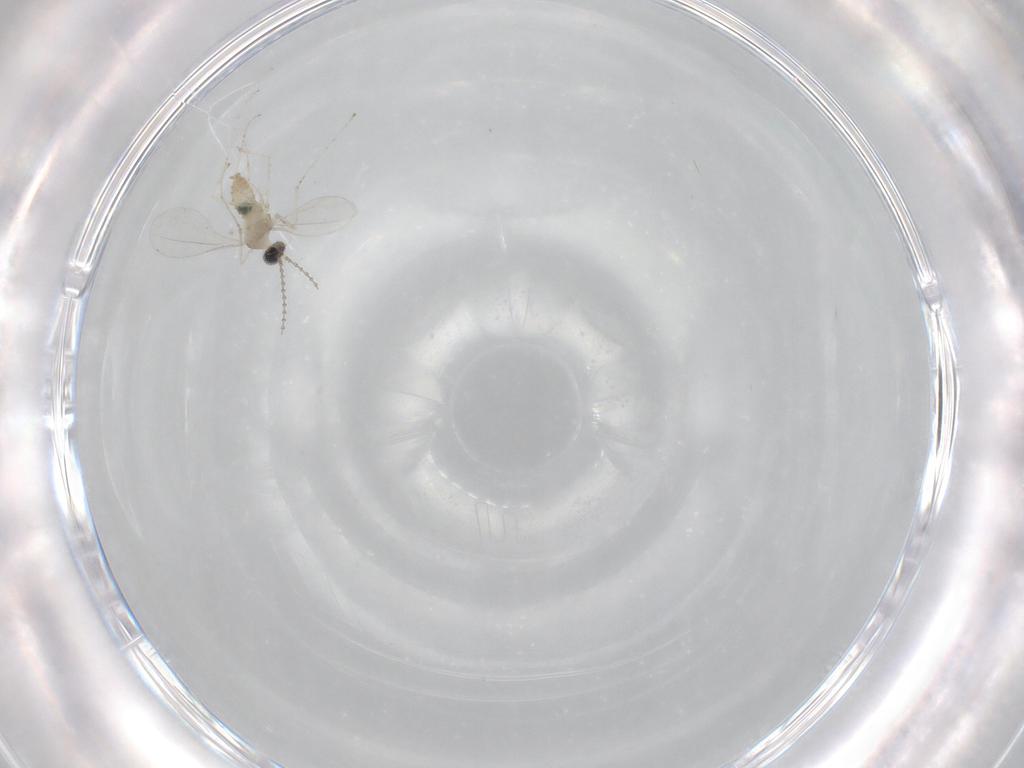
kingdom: Animalia
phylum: Arthropoda
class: Insecta
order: Diptera
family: Cecidomyiidae
